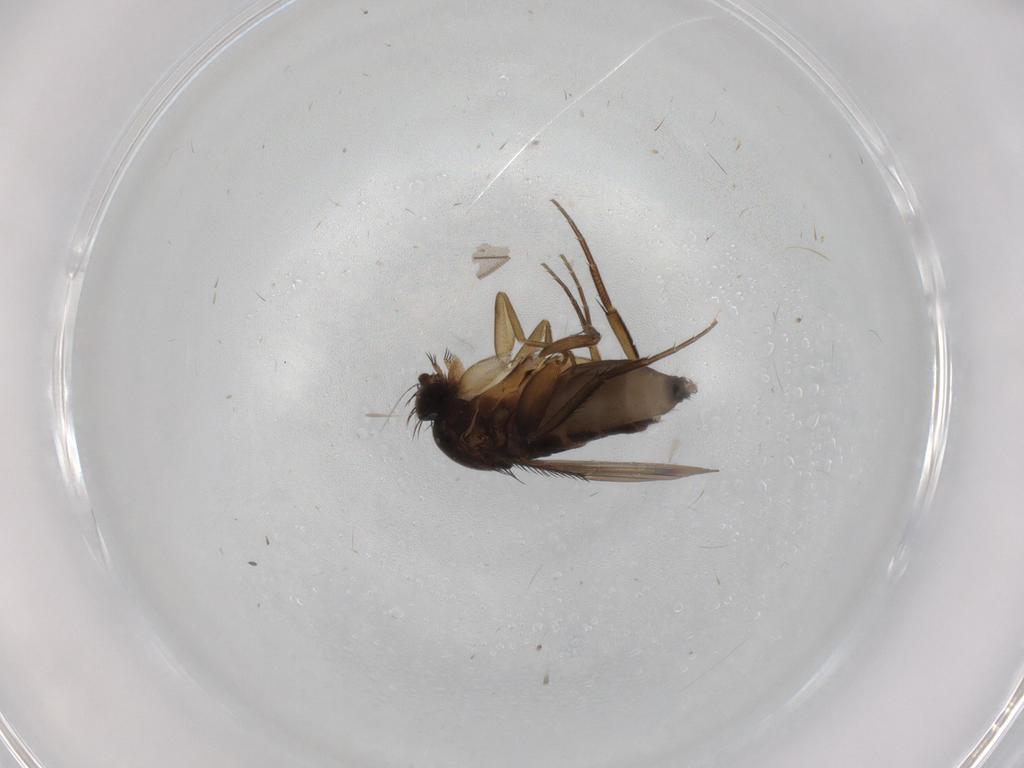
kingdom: Animalia
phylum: Arthropoda
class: Insecta
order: Diptera
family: Phoridae
